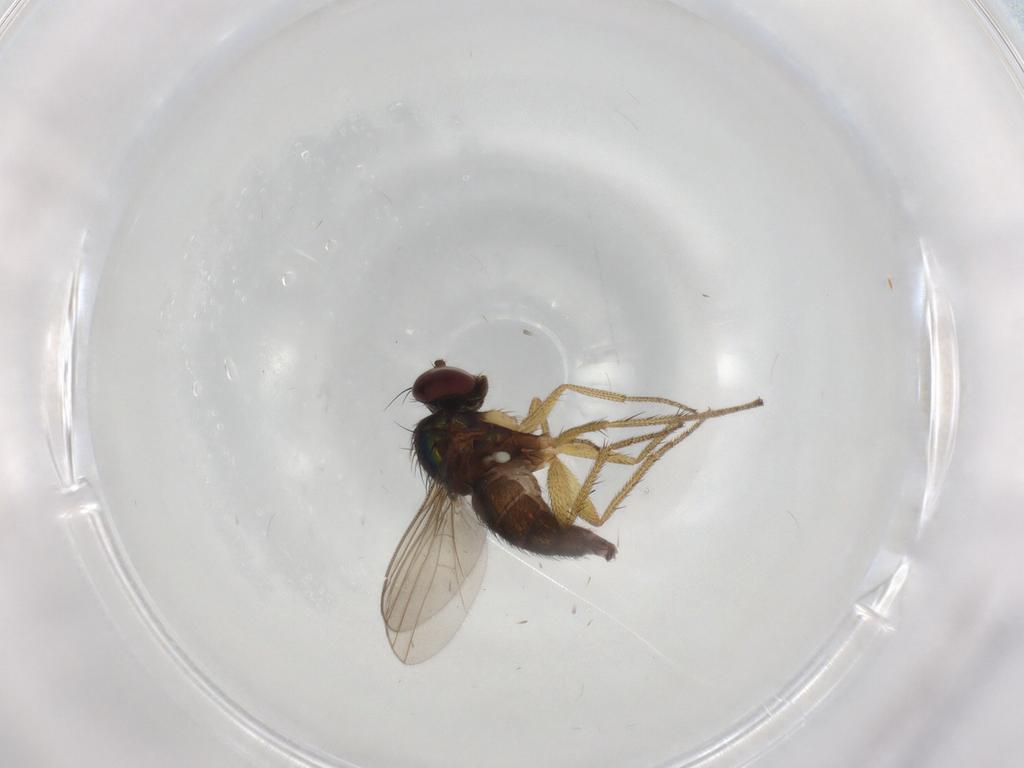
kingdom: Animalia
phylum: Arthropoda
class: Insecta
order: Diptera
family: Dolichopodidae
